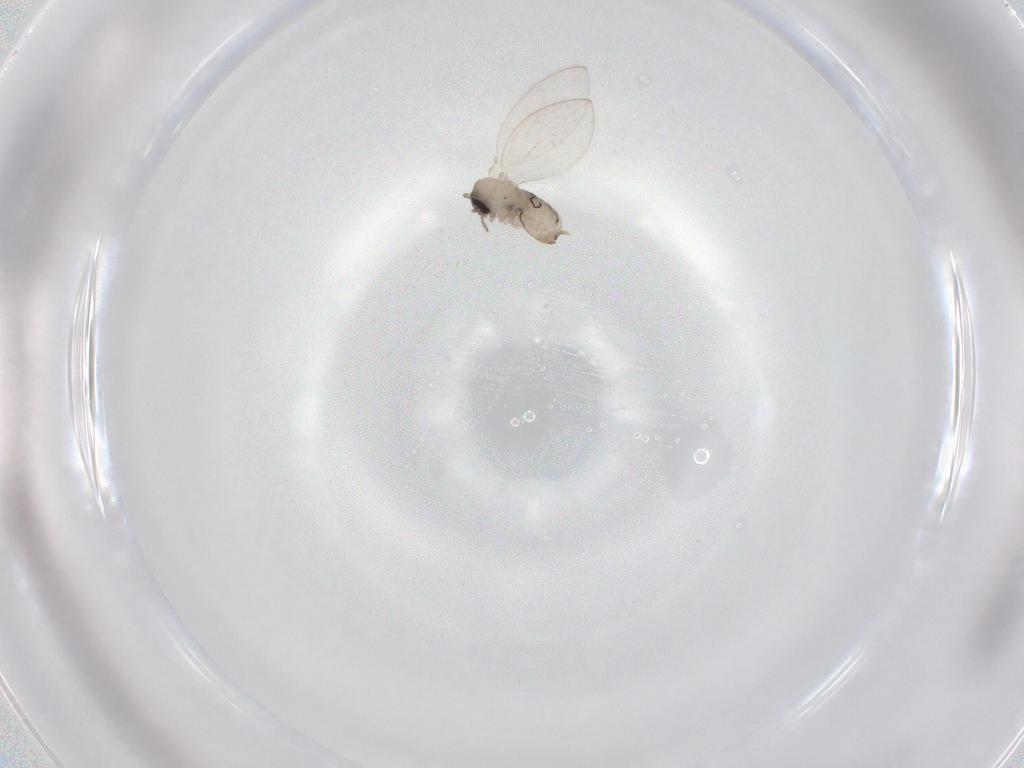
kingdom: Animalia
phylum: Arthropoda
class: Insecta
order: Diptera
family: Psychodidae
